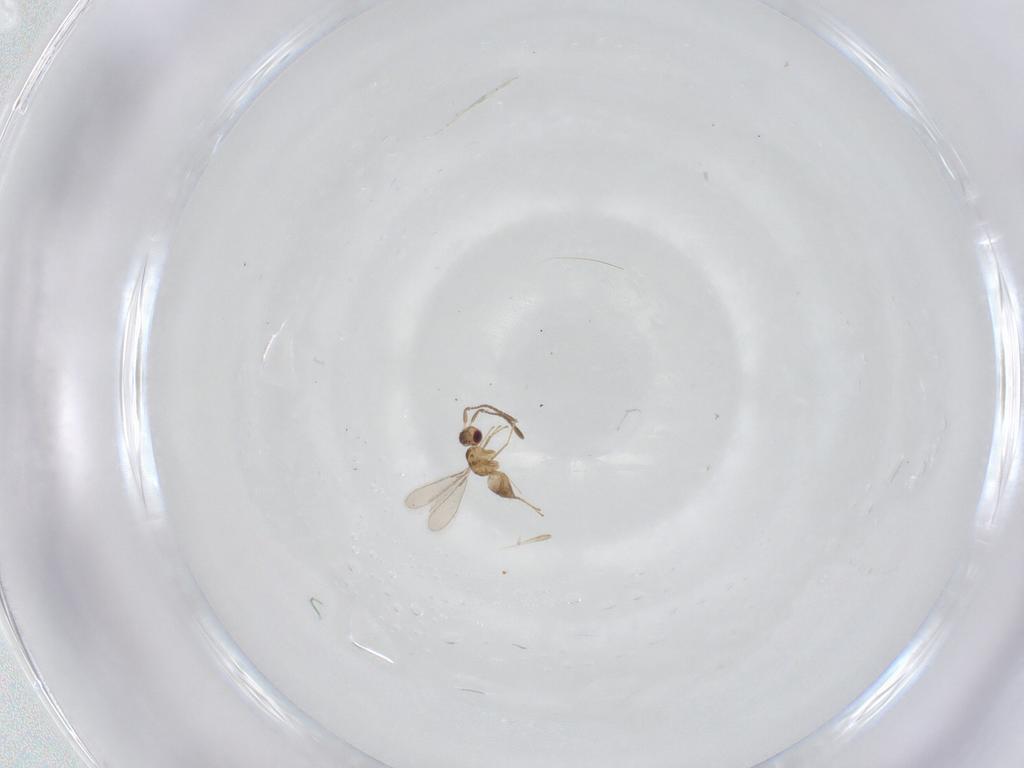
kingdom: Animalia
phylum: Arthropoda
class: Insecta
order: Hymenoptera
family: Mymaridae
